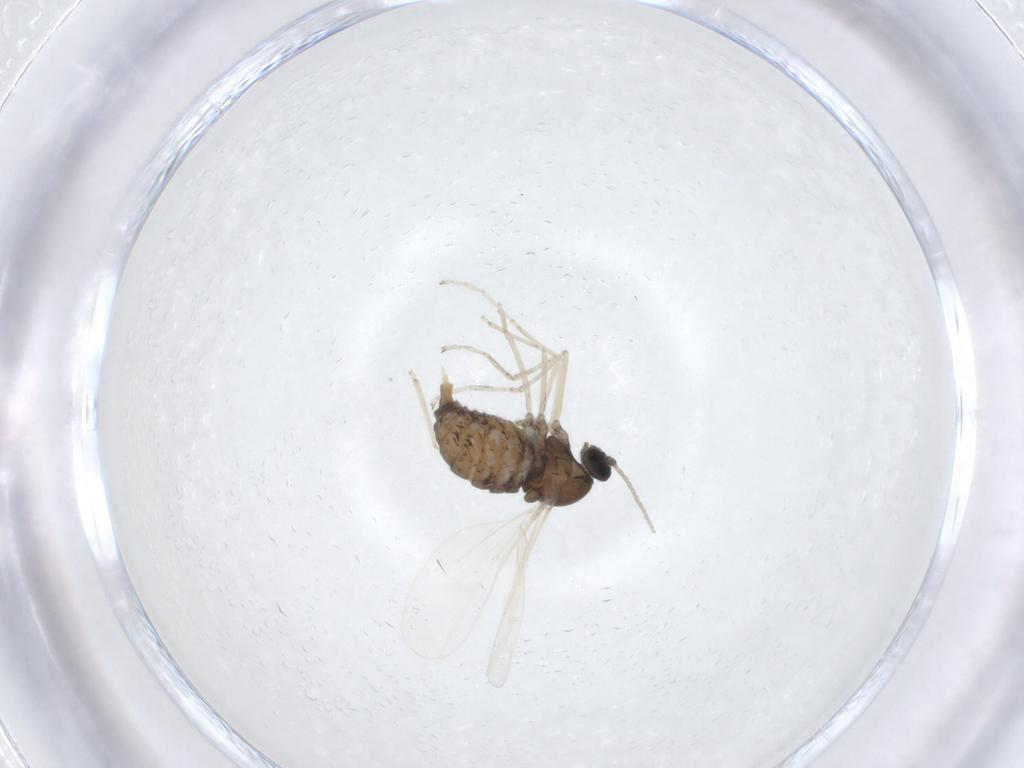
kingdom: Animalia
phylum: Arthropoda
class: Insecta
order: Diptera
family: Cecidomyiidae
